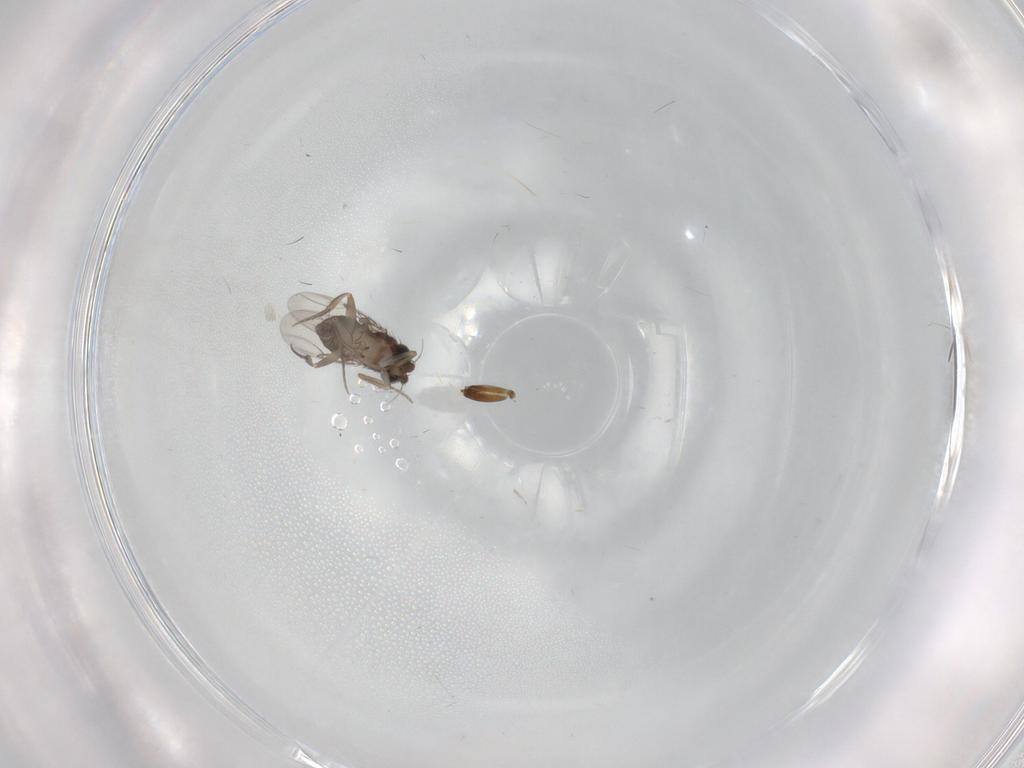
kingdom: Animalia
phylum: Arthropoda
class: Insecta
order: Diptera
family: Phoridae
